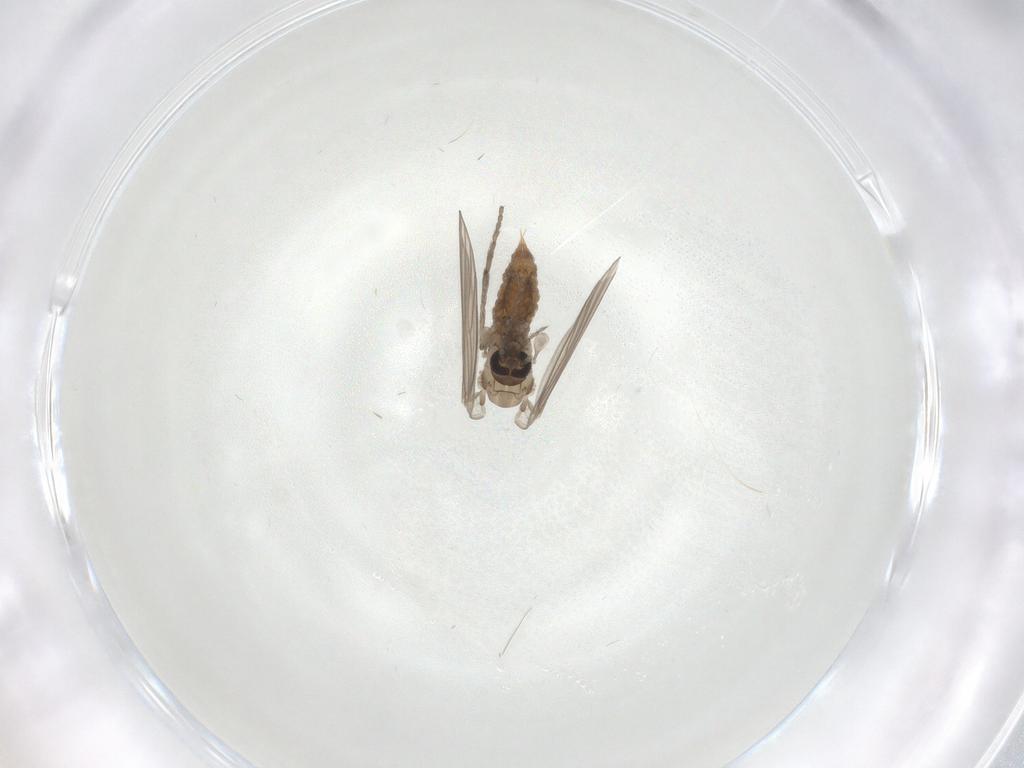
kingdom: Animalia
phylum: Arthropoda
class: Insecta
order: Diptera
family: Psychodidae
